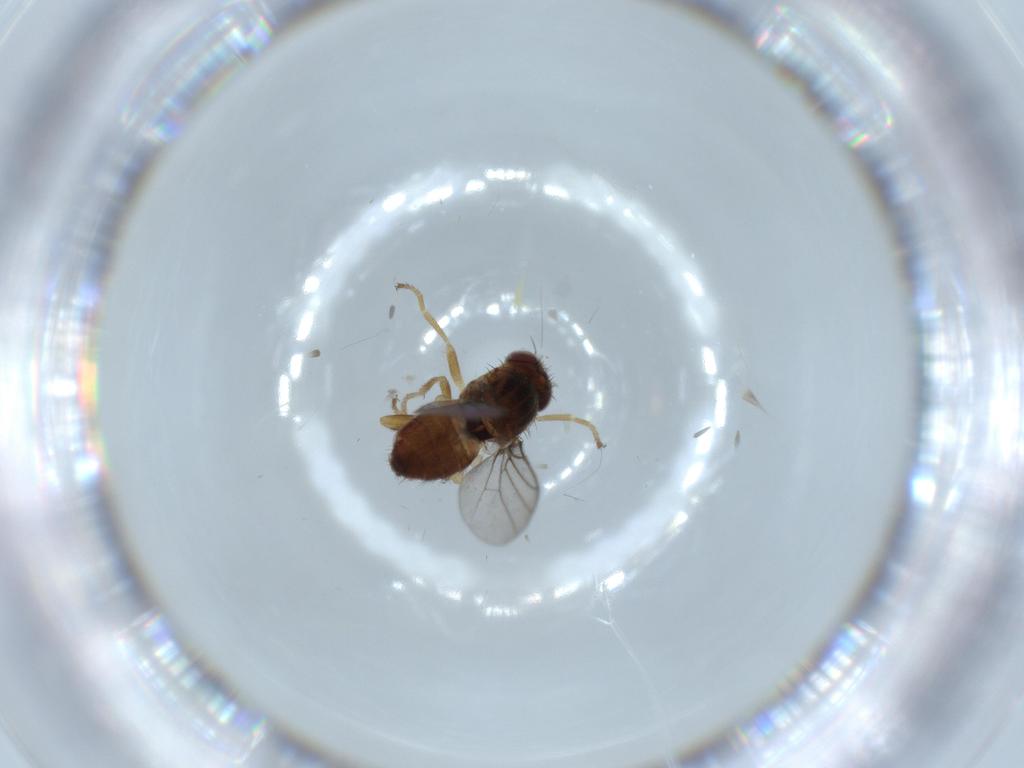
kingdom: Animalia
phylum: Arthropoda
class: Insecta
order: Diptera
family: Chloropidae
